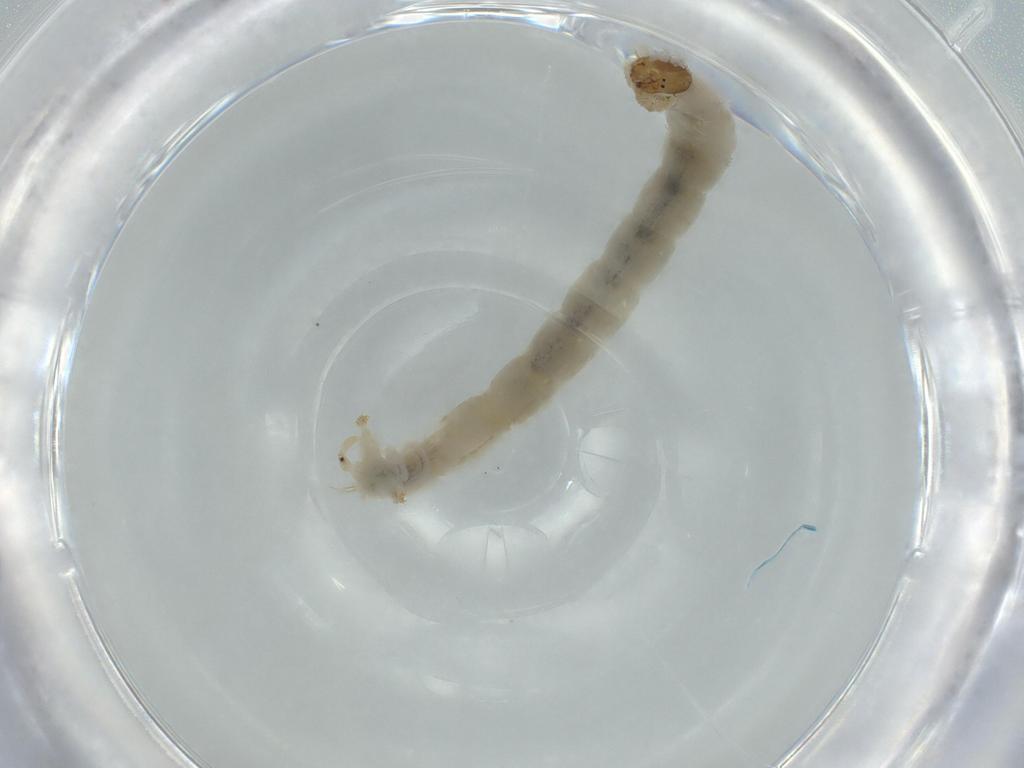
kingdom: Animalia
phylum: Arthropoda
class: Insecta
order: Diptera
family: Chironomidae
